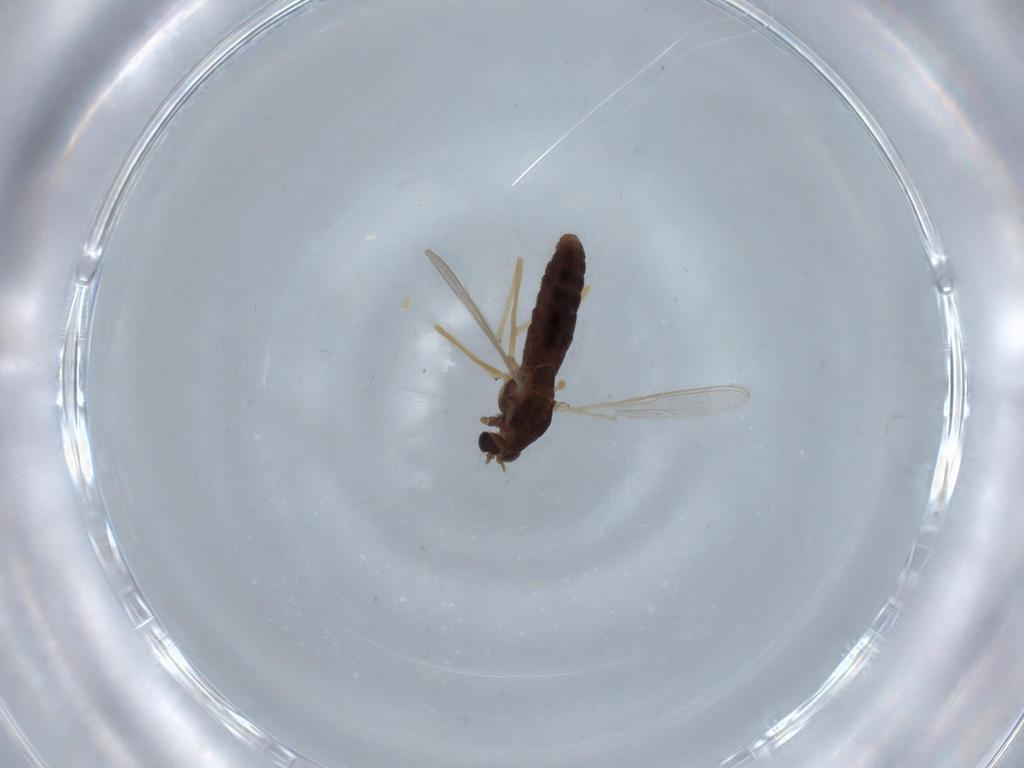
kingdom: Animalia
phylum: Arthropoda
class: Insecta
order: Diptera
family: Chironomidae
